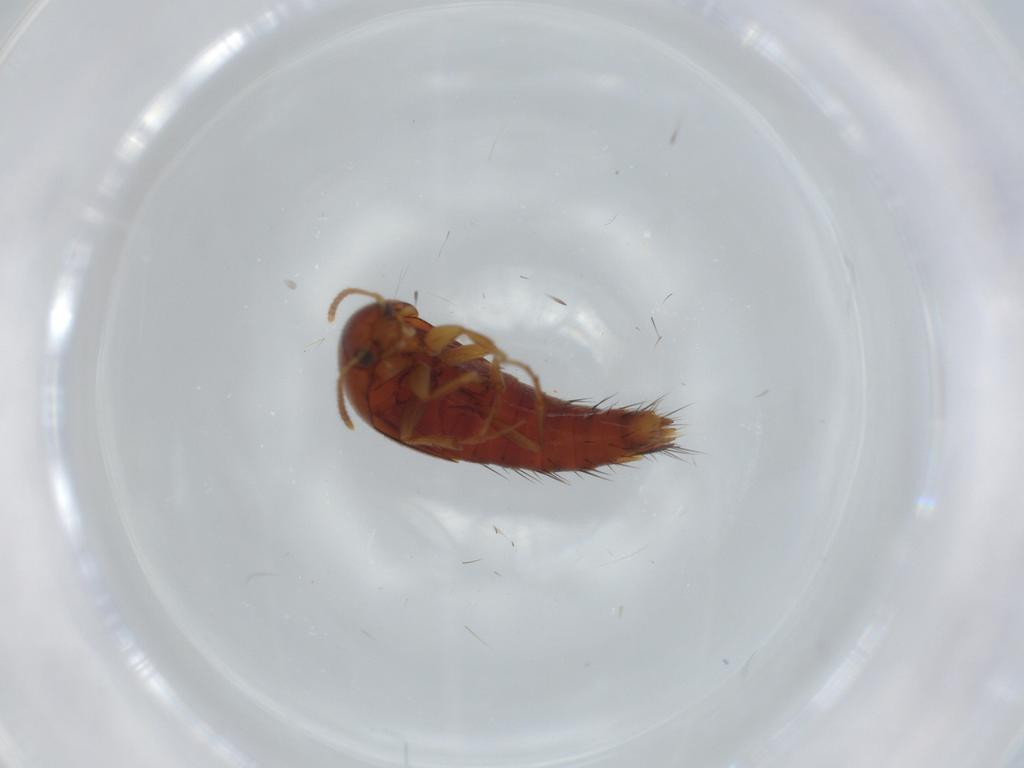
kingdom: Animalia
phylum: Arthropoda
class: Insecta
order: Coleoptera
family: Staphylinidae
